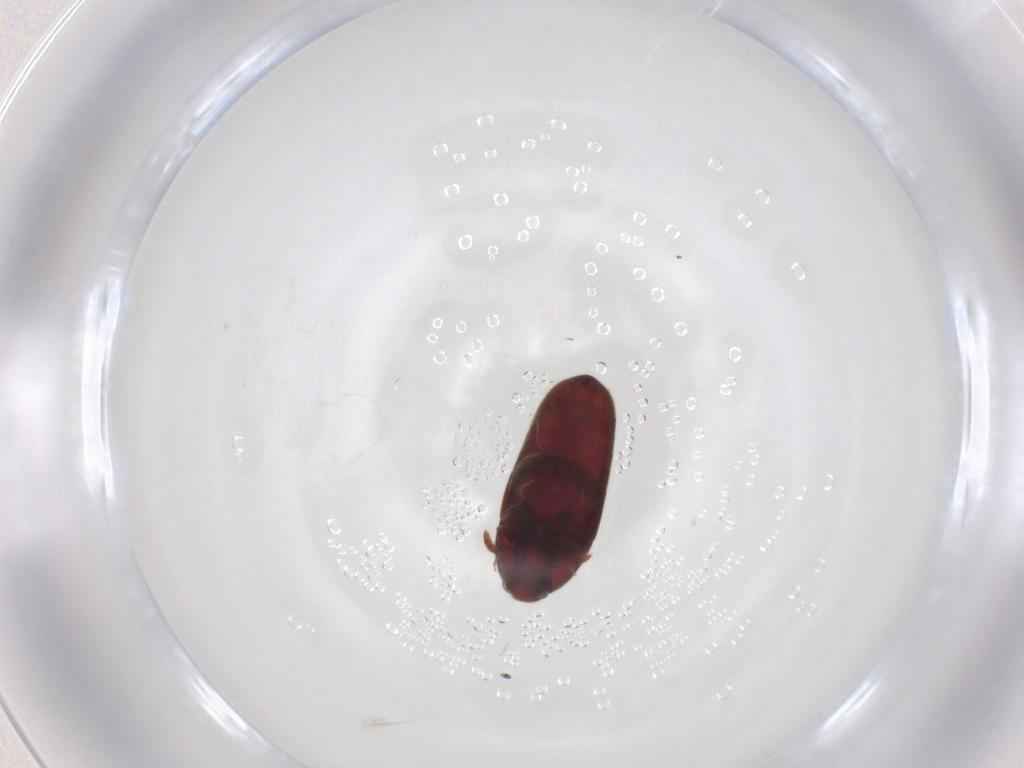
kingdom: Animalia
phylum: Arthropoda
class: Insecta
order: Coleoptera
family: Throscidae
